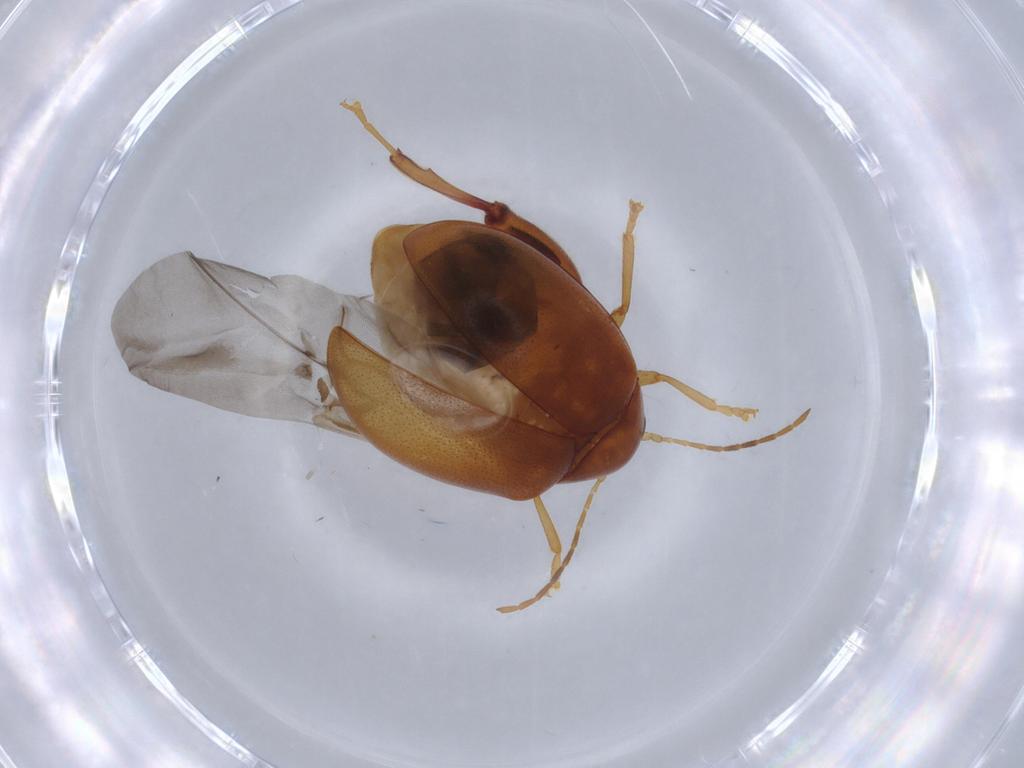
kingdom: Animalia
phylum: Arthropoda
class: Insecta
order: Coleoptera
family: Chrysomelidae
